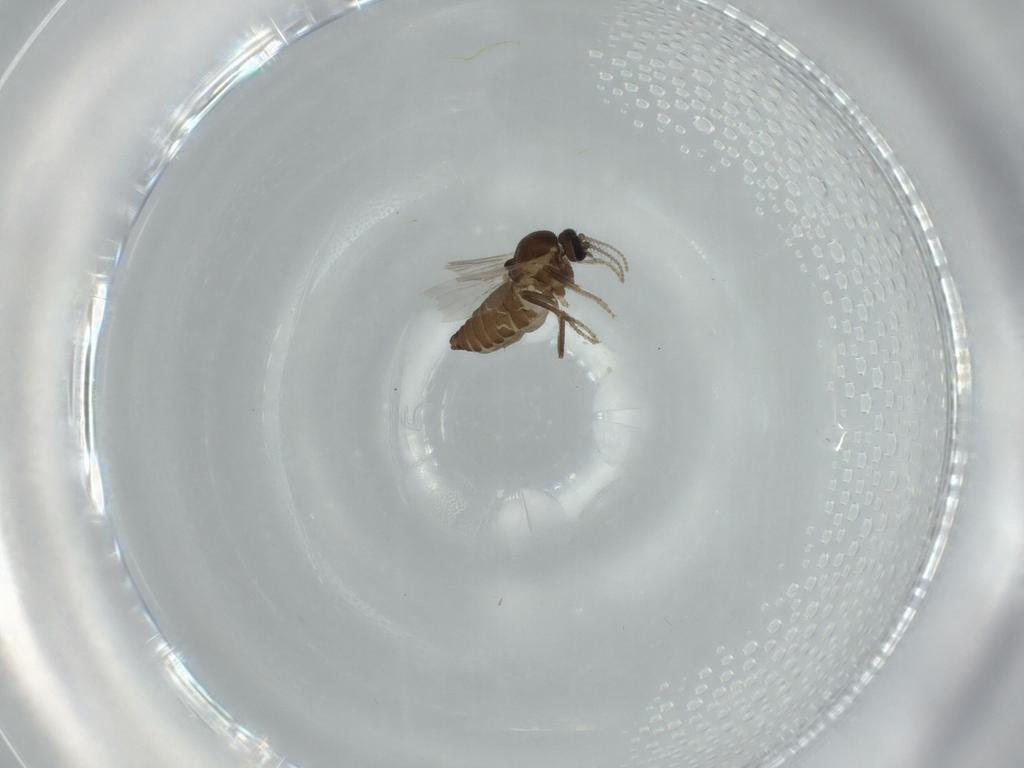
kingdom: Animalia
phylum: Arthropoda
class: Insecta
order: Diptera
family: Ceratopogonidae
